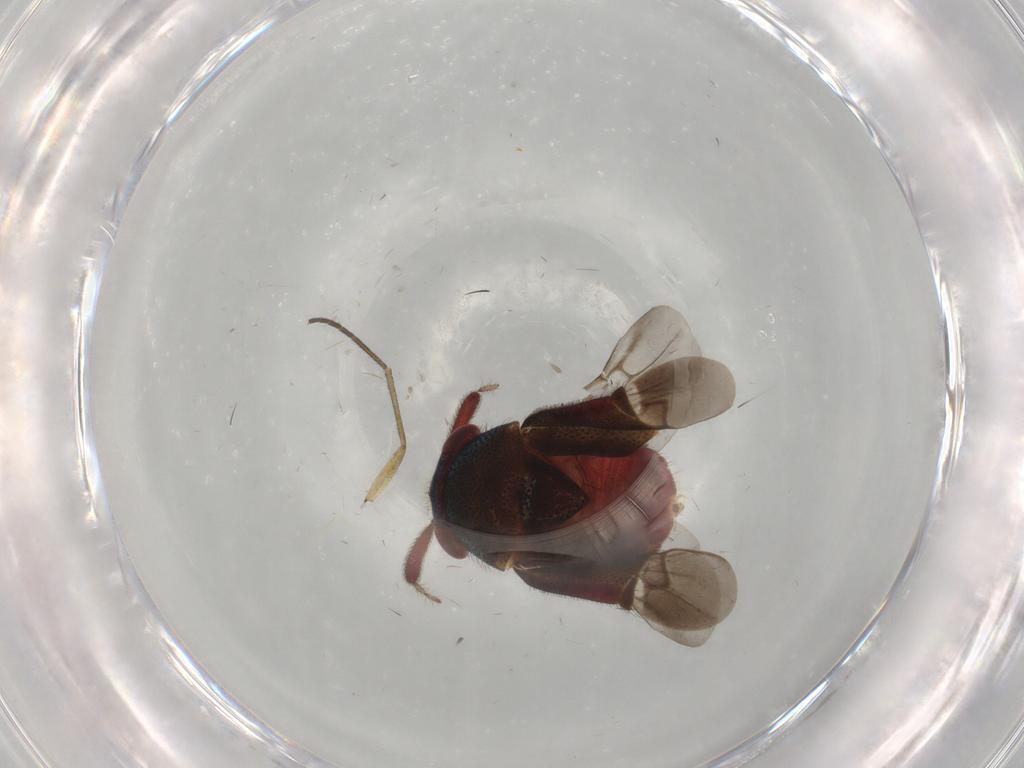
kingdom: Animalia
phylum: Arthropoda
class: Insecta
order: Hemiptera
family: Miridae
